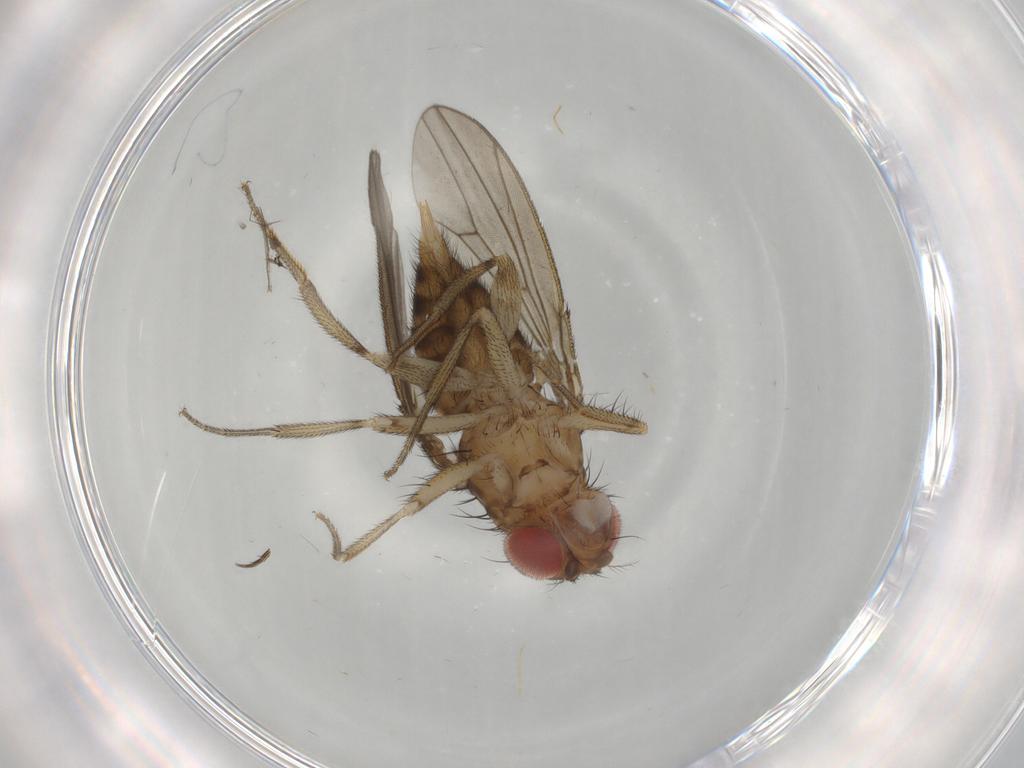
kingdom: Animalia
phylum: Arthropoda
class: Insecta
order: Diptera
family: Drosophilidae
